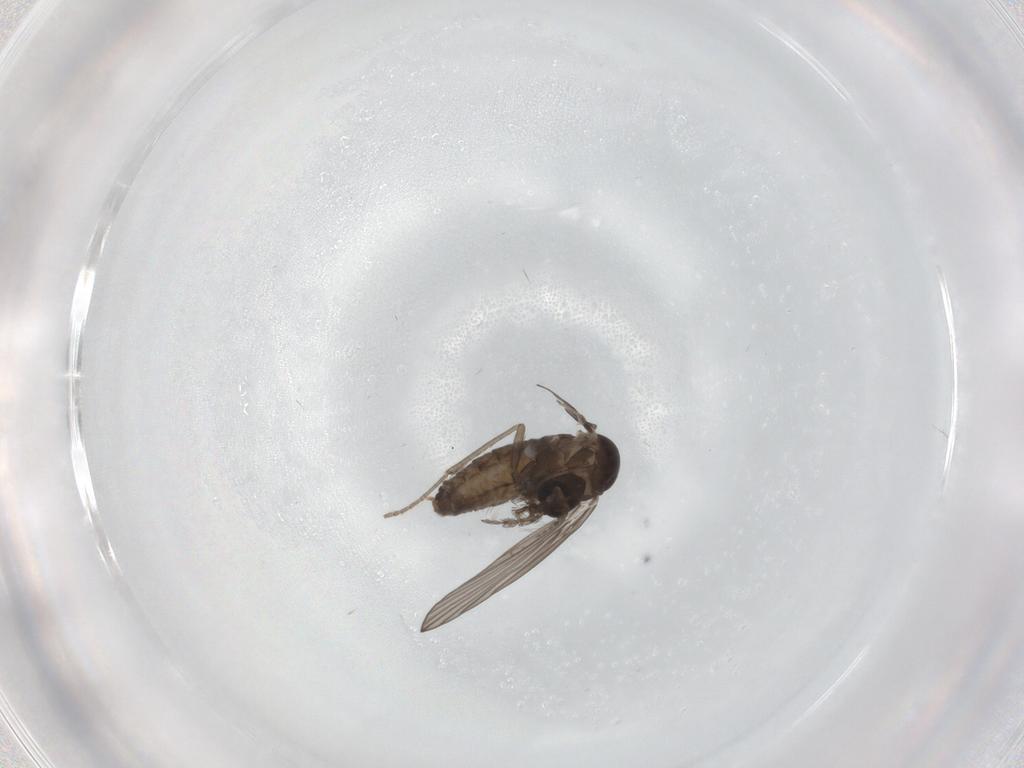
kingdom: Animalia
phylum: Arthropoda
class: Insecta
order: Diptera
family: Psychodidae
